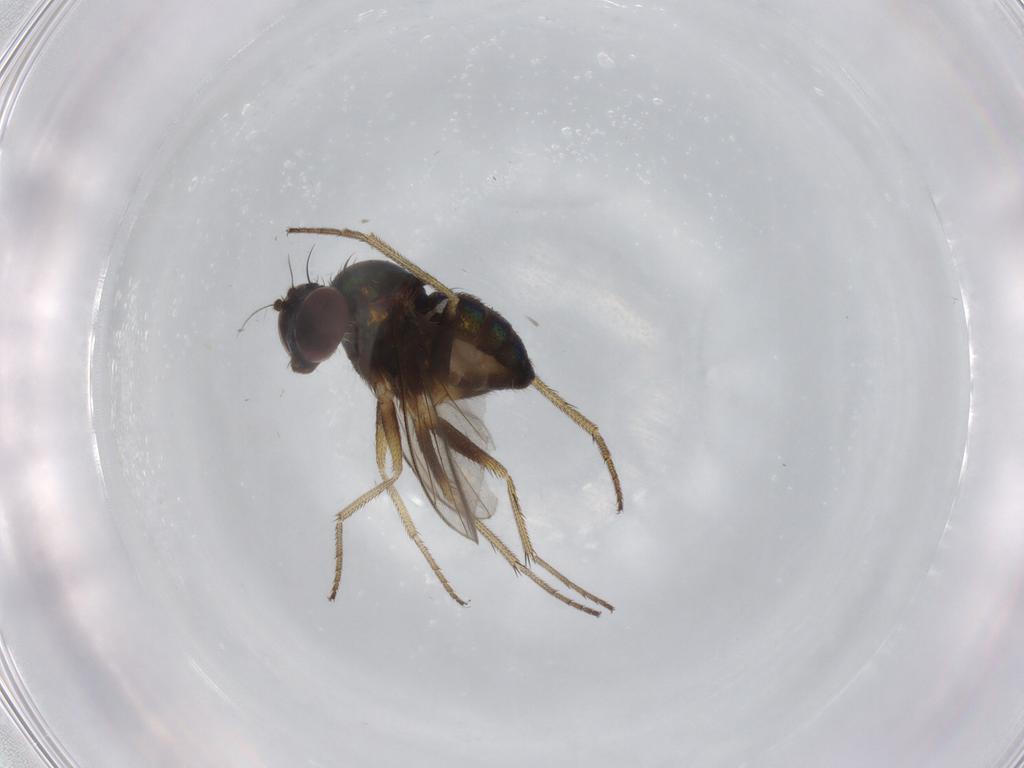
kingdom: Animalia
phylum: Arthropoda
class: Insecta
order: Diptera
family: Dolichopodidae
